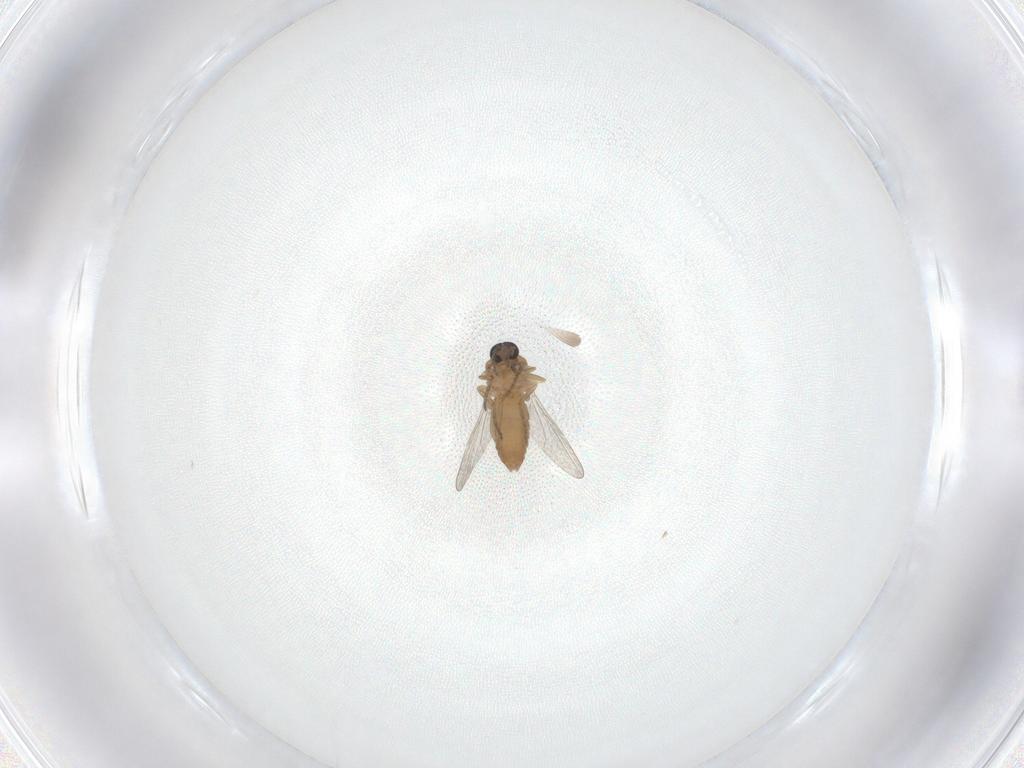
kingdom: Animalia
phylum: Arthropoda
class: Insecta
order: Diptera
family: Ceratopogonidae
